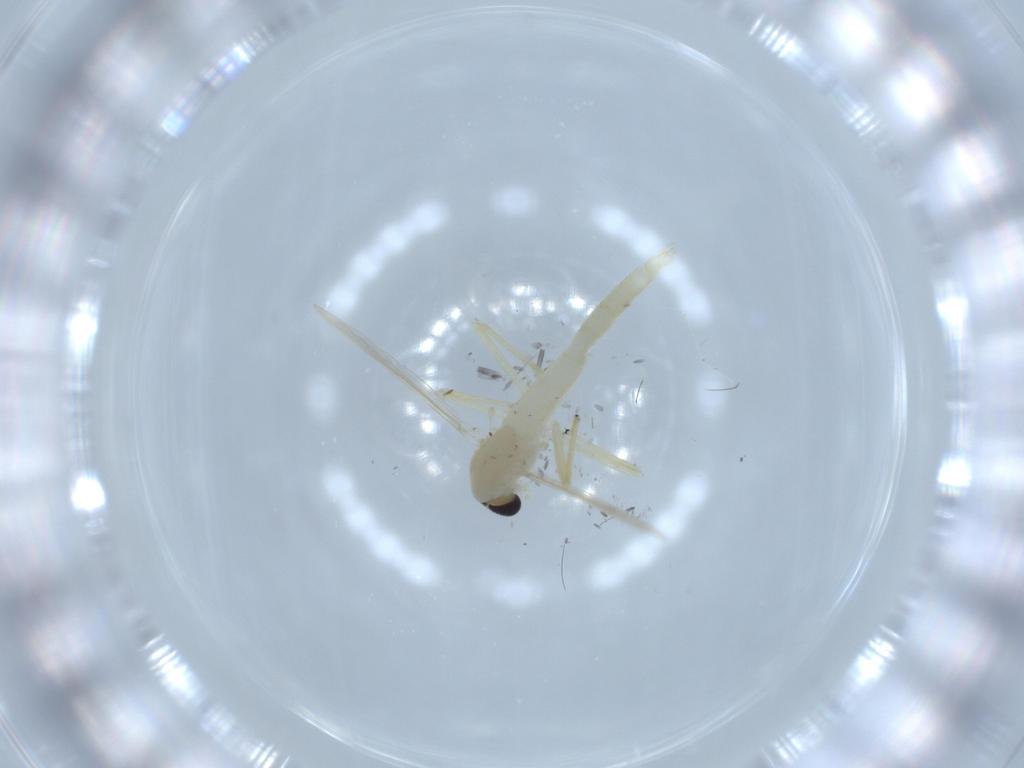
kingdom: Animalia
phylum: Arthropoda
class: Insecta
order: Diptera
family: Chironomidae
